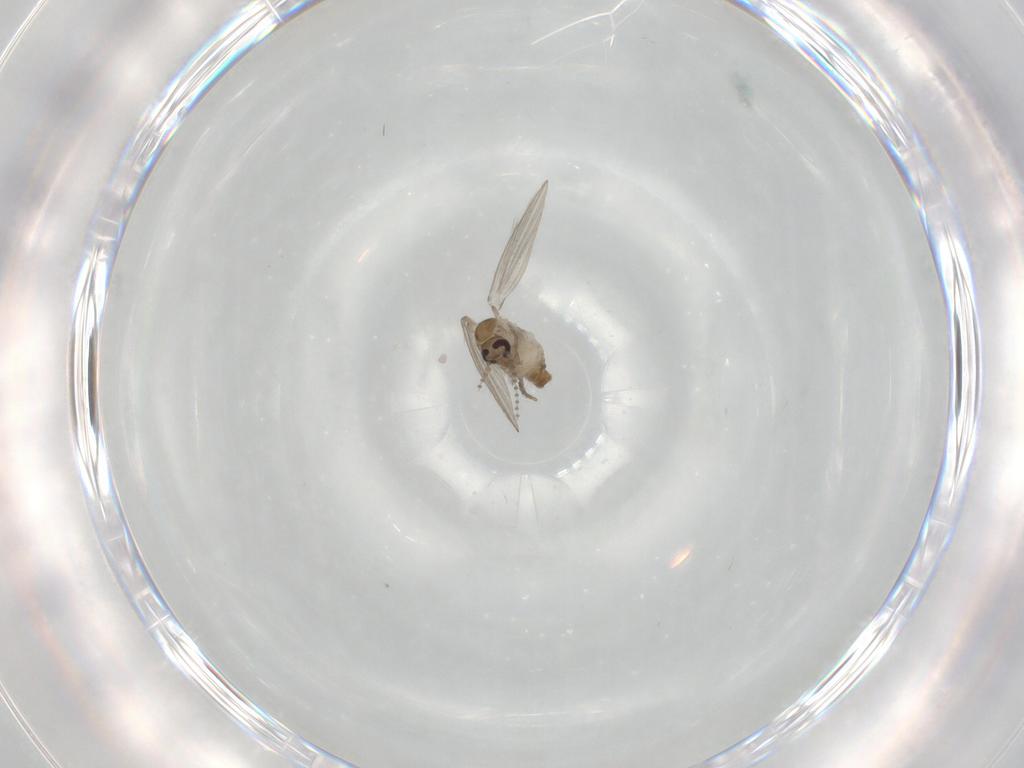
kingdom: Animalia
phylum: Arthropoda
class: Insecta
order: Diptera
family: Psychodidae
